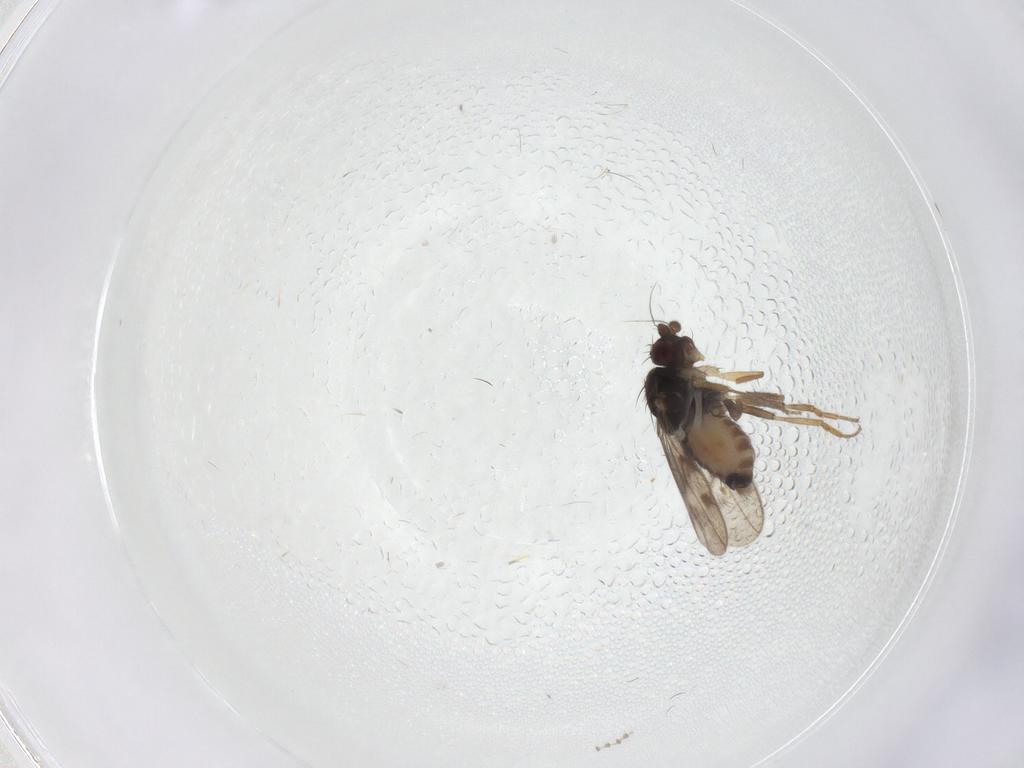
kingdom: Animalia
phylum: Arthropoda
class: Insecta
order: Diptera
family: Sphaeroceridae
